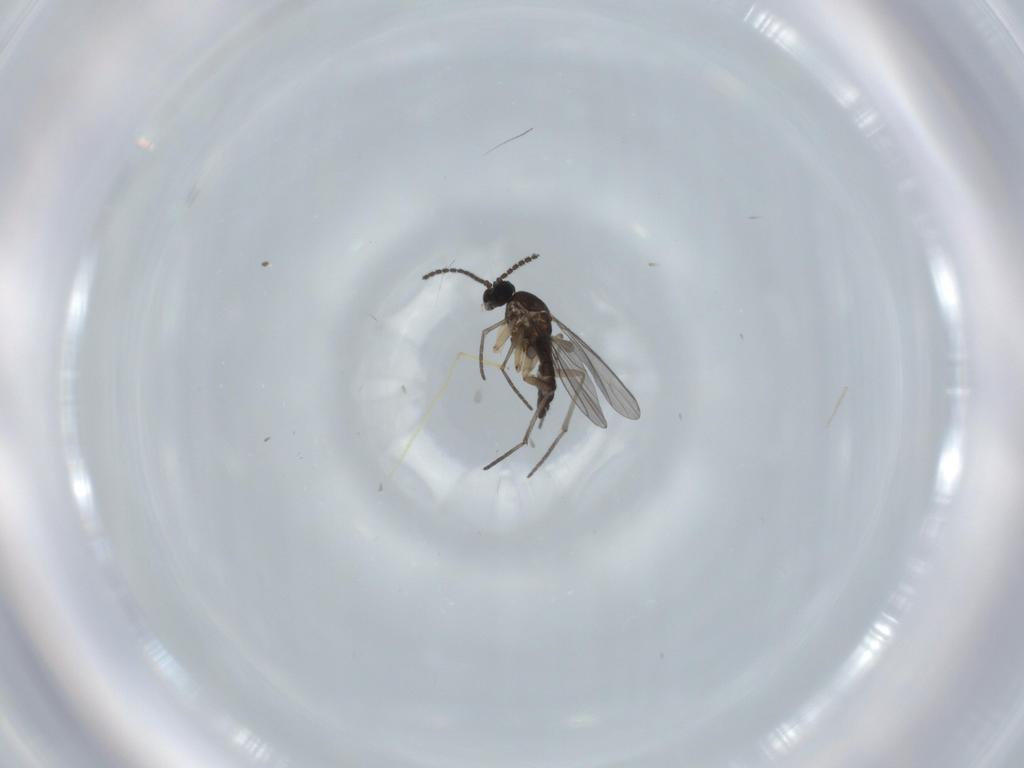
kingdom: Animalia
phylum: Arthropoda
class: Insecta
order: Diptera
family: Sciaridae
